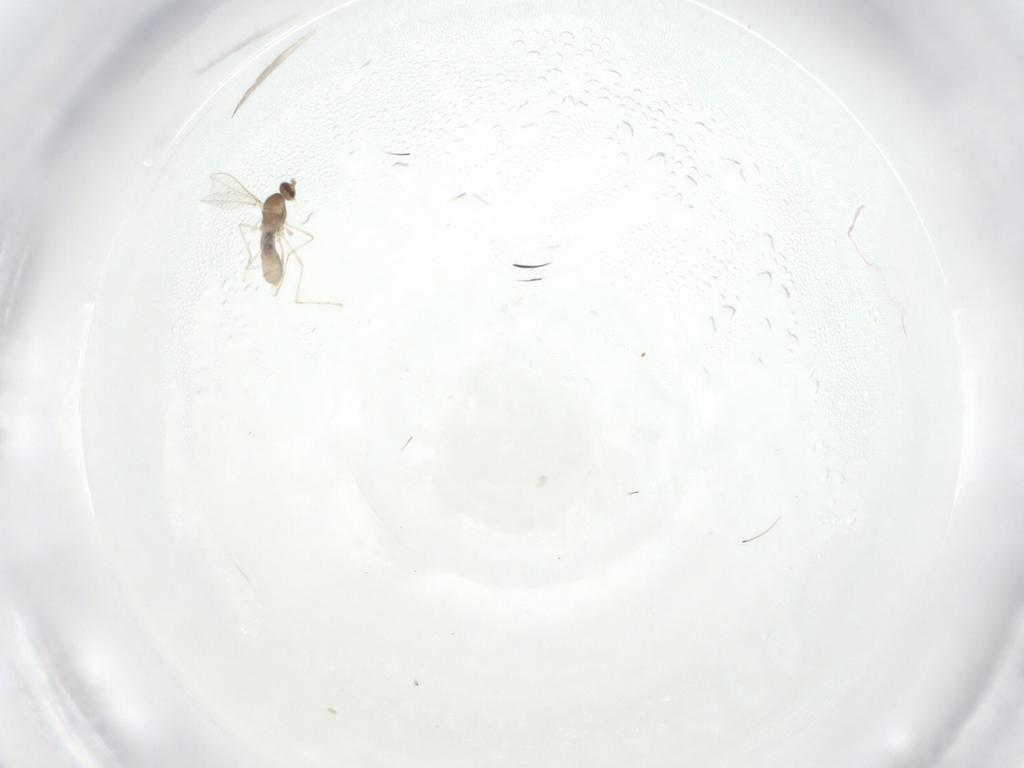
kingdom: Animalia
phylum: Arthropoda
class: Insecta
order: Diptera
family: Cecidomyiidae
